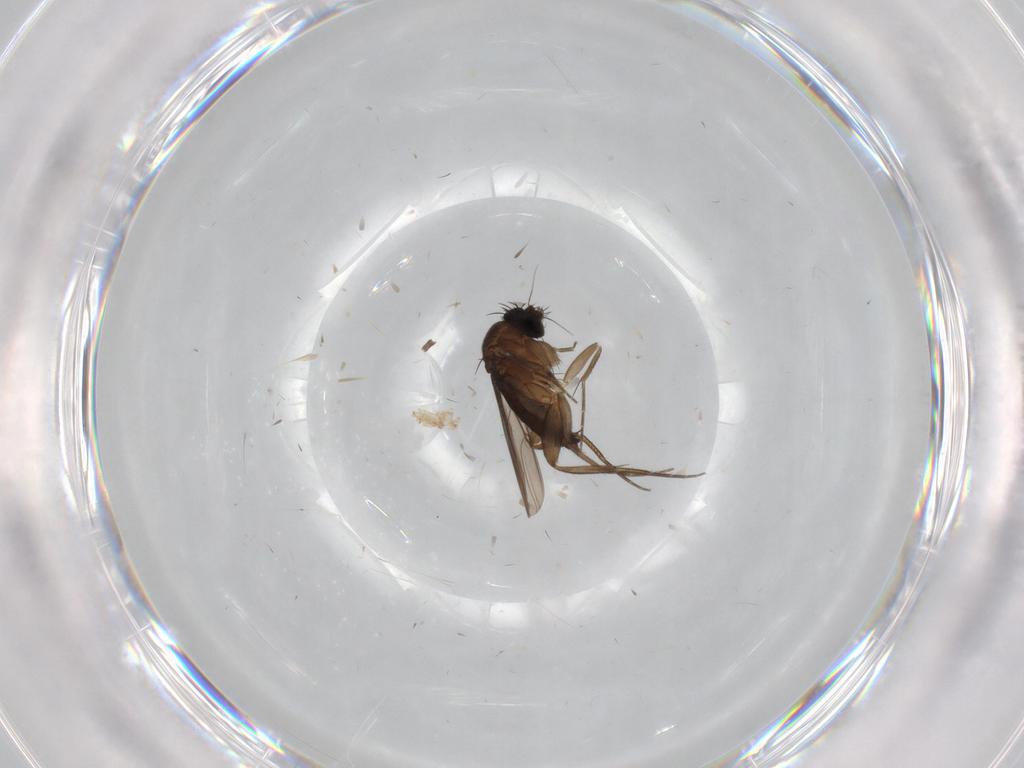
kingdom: Animalia
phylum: Arthropoda
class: Insecta
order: Diptera
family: Phoridae
